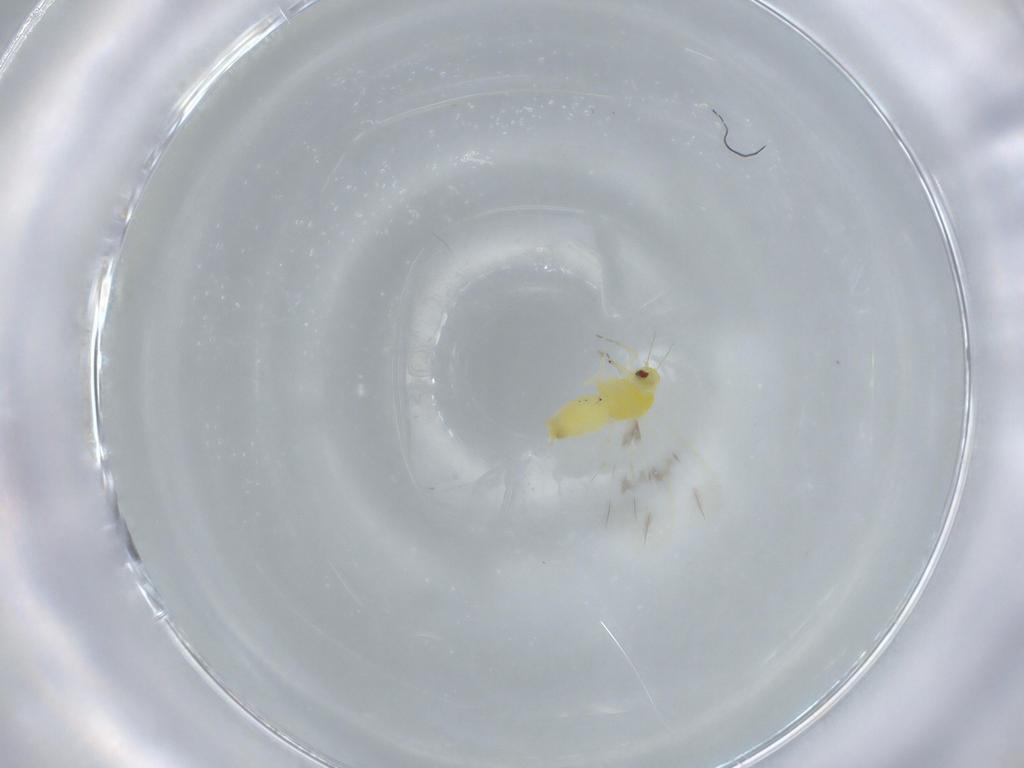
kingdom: Animalia
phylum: Arthropoda
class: Insecta
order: Hemiptera
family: Aleyrodidae
